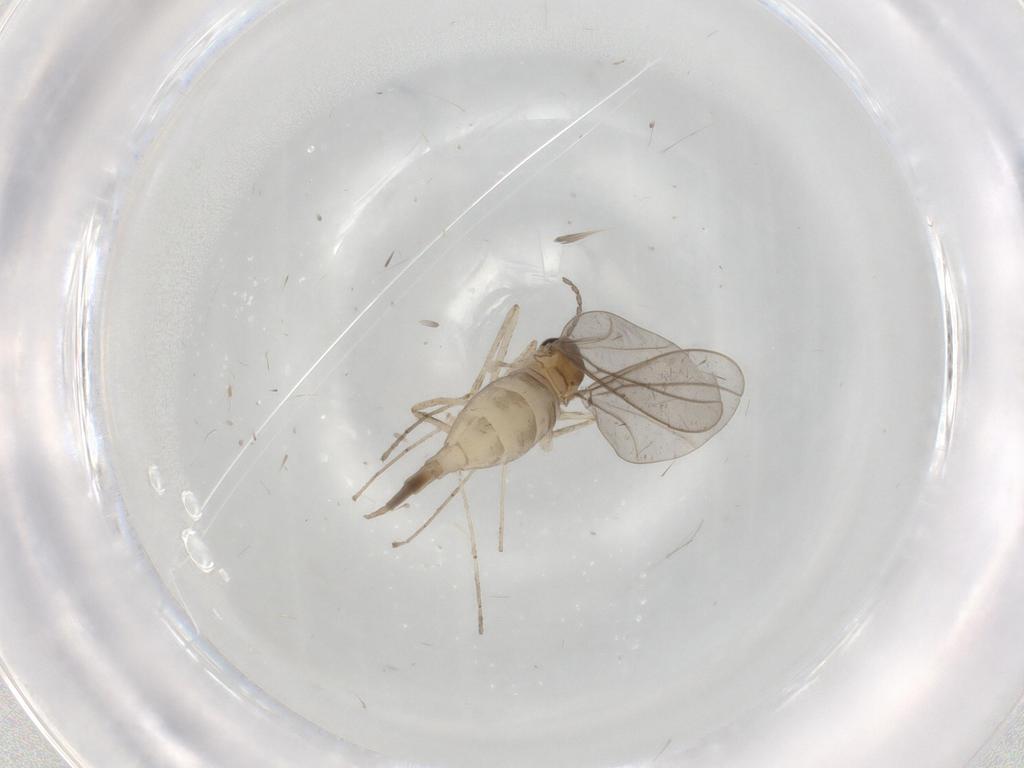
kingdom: Animalia
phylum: Arthropoda
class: Insecta
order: Diptera
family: Cecidomyiidae
